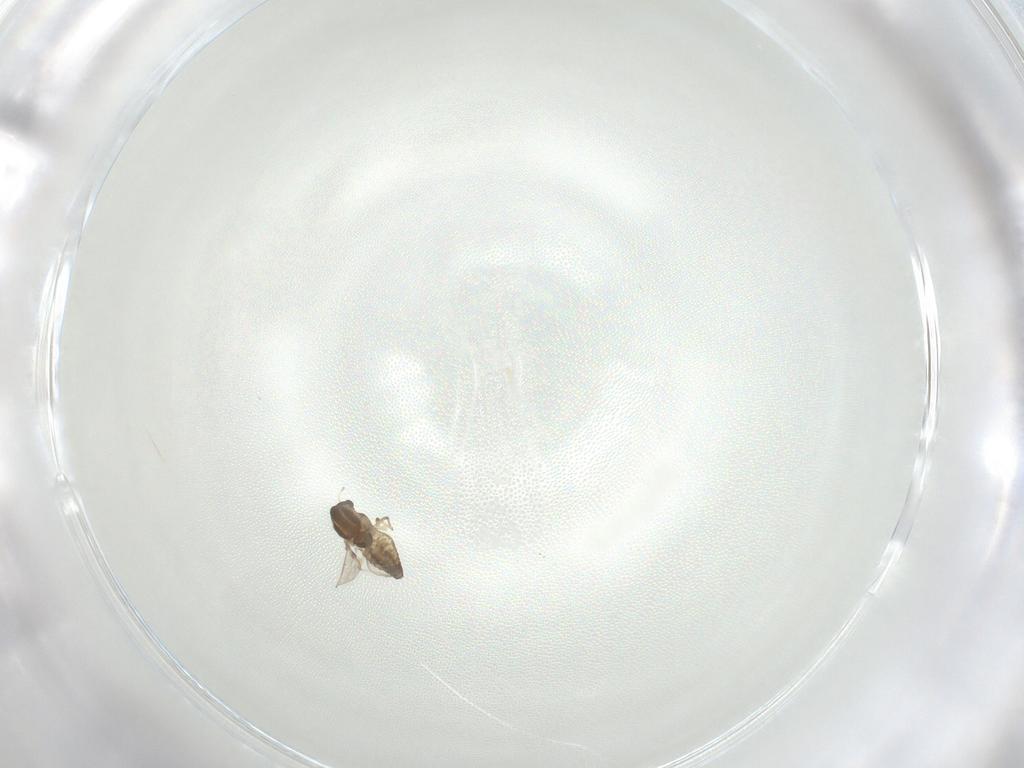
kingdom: Animalia
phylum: Arthropoda
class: Insecta
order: Diptera
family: Chironomidae
